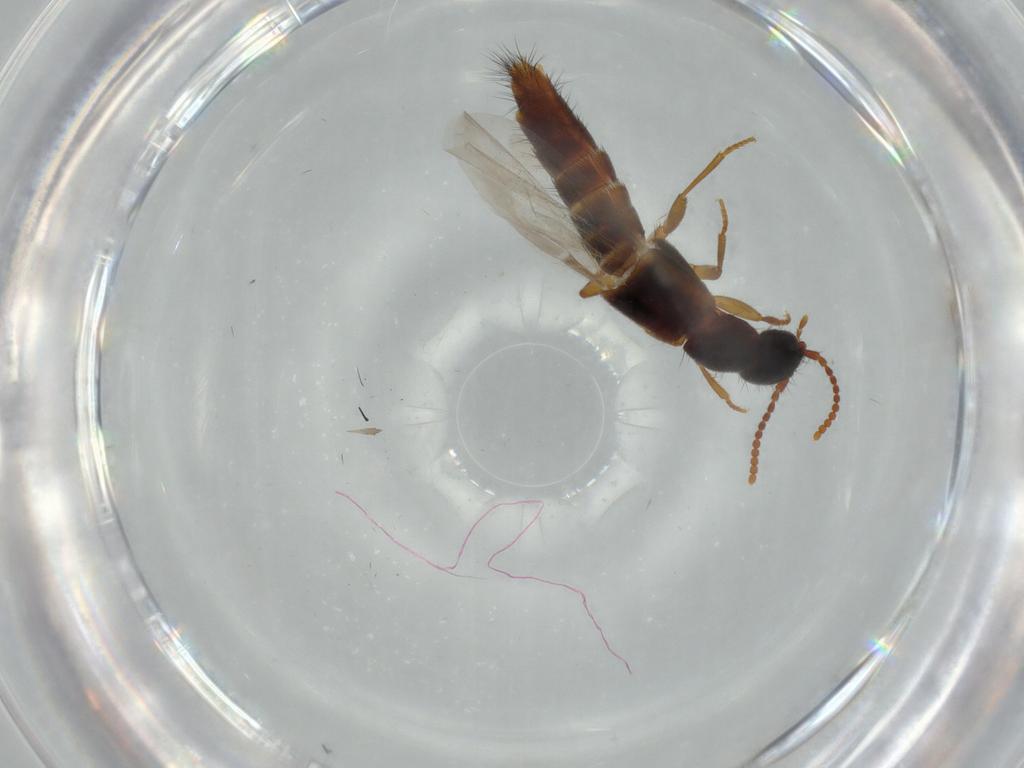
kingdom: Animalia
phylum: Arthropoda
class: Insecta
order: Coleoptera
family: Staphylinidae
